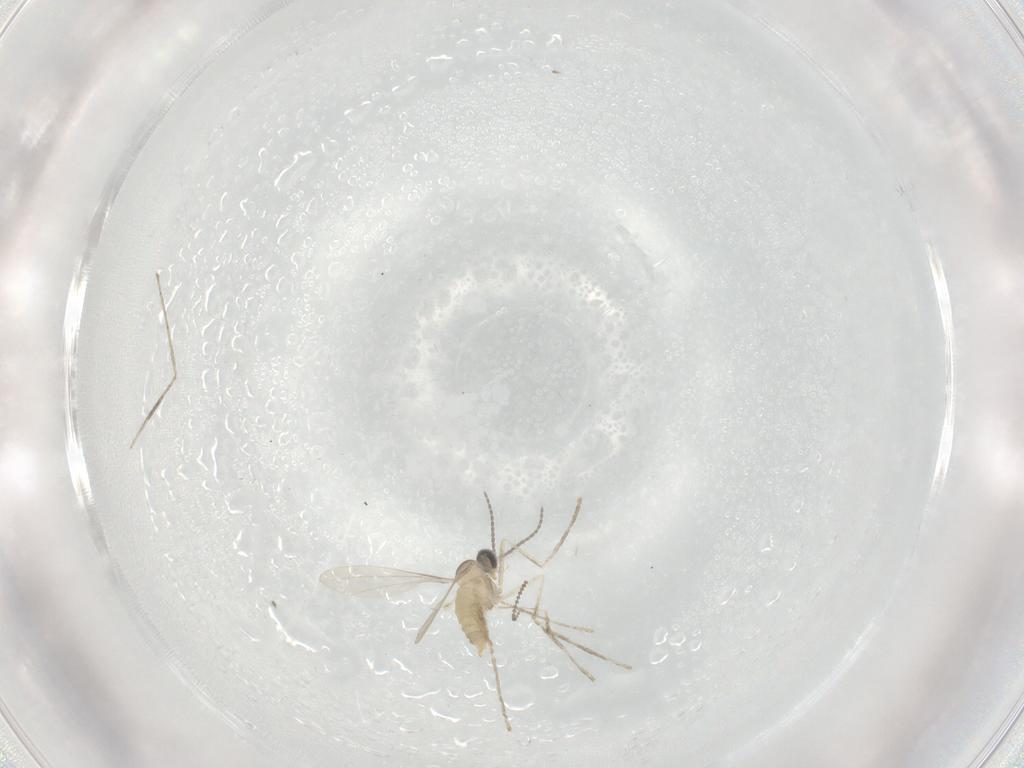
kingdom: Animalia
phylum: Arthropoda
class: Insecta
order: Diptera
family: Cecidomyiidae
